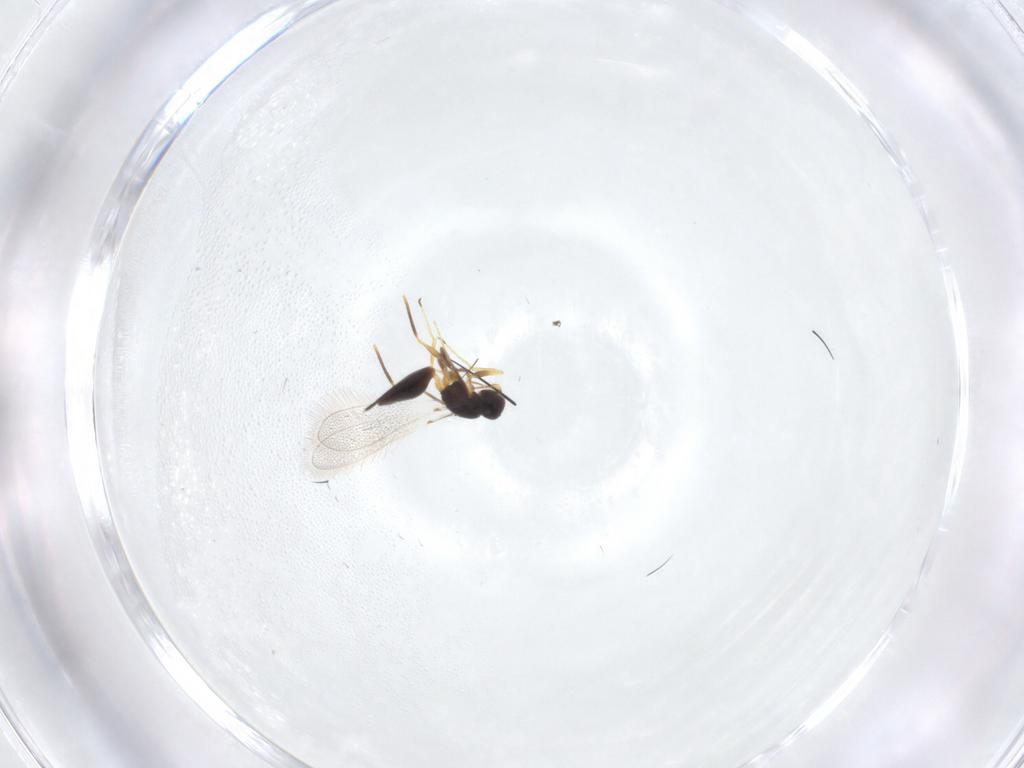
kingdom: Animalia
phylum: Arthropoda
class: Insecta
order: Hymenoptera
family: Mymaridae
